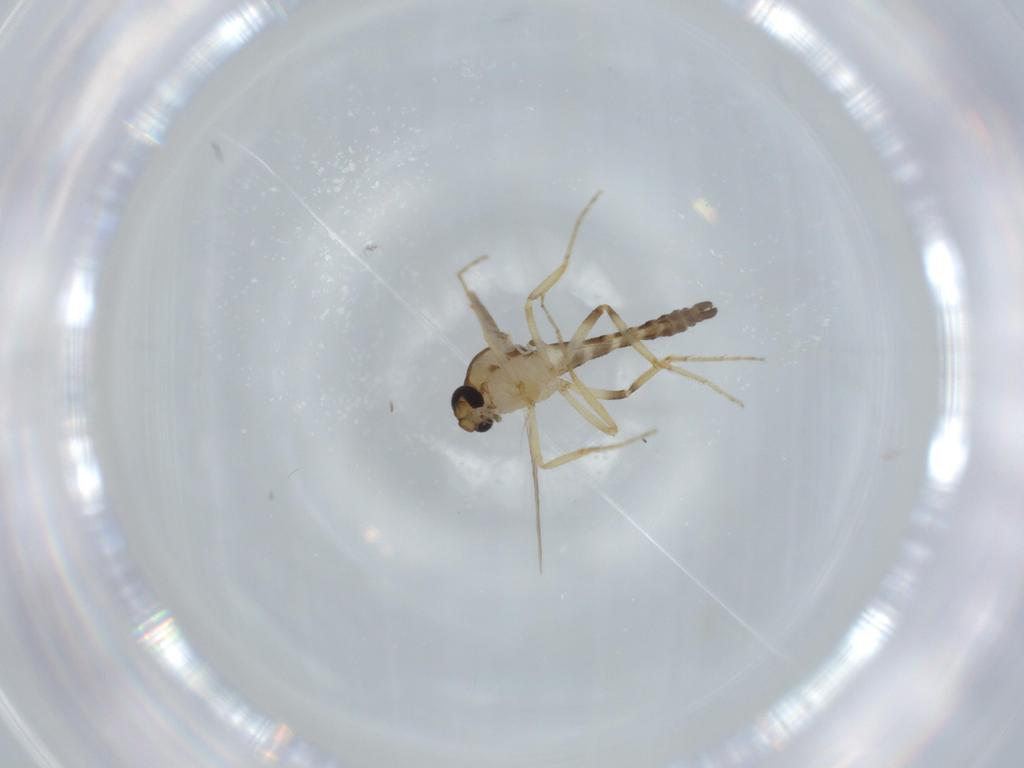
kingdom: Animalia
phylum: Arthropoda
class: Insecta
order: Diptera
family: Ceratopogonidae
